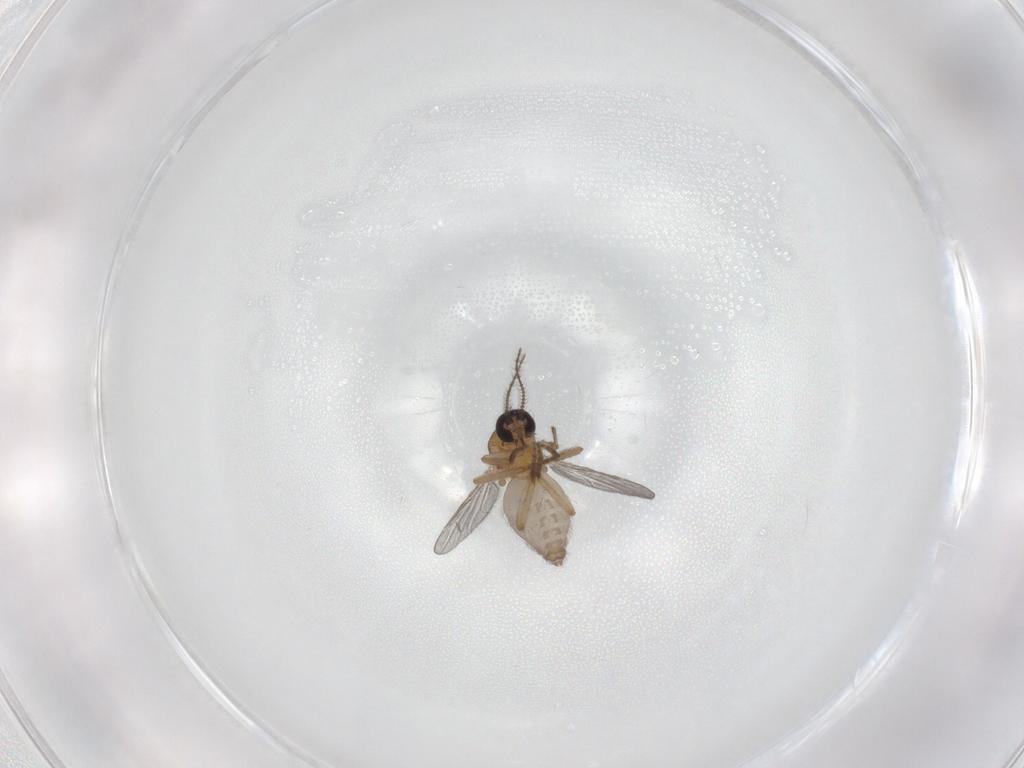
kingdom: Animalia
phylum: Arthropoda
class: Insecta
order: Diptera
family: Ceratopogonidae
